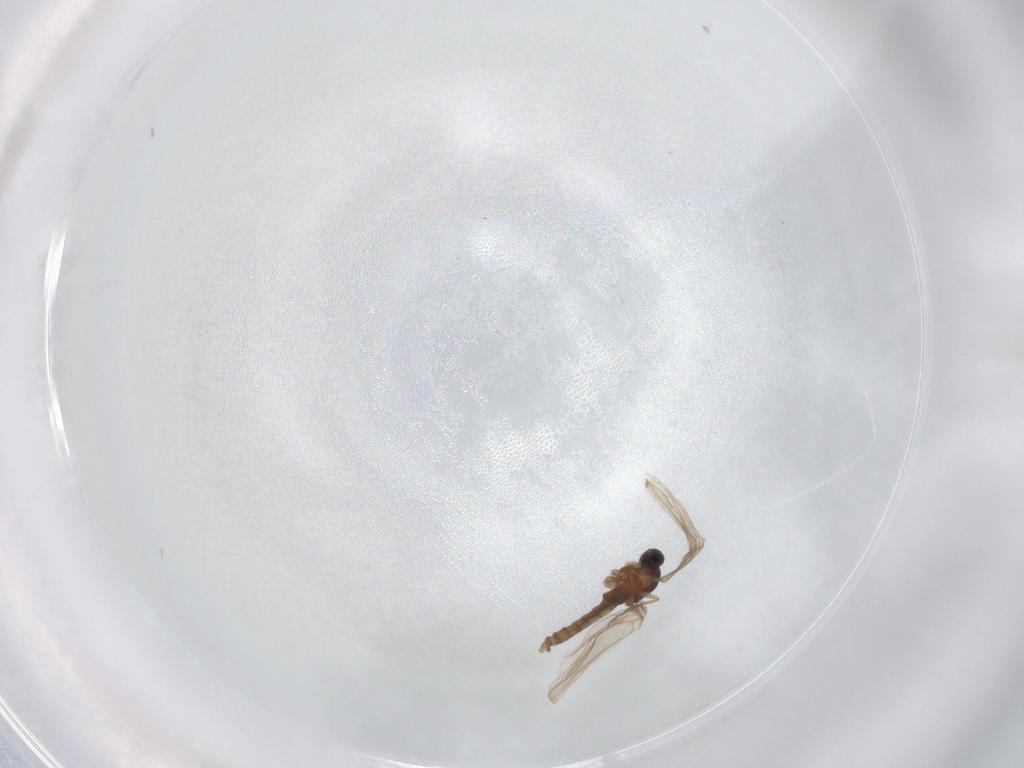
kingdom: Animalia
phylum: Arthropoda
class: Insecta
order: Diptera
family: Cecidomyiidae
